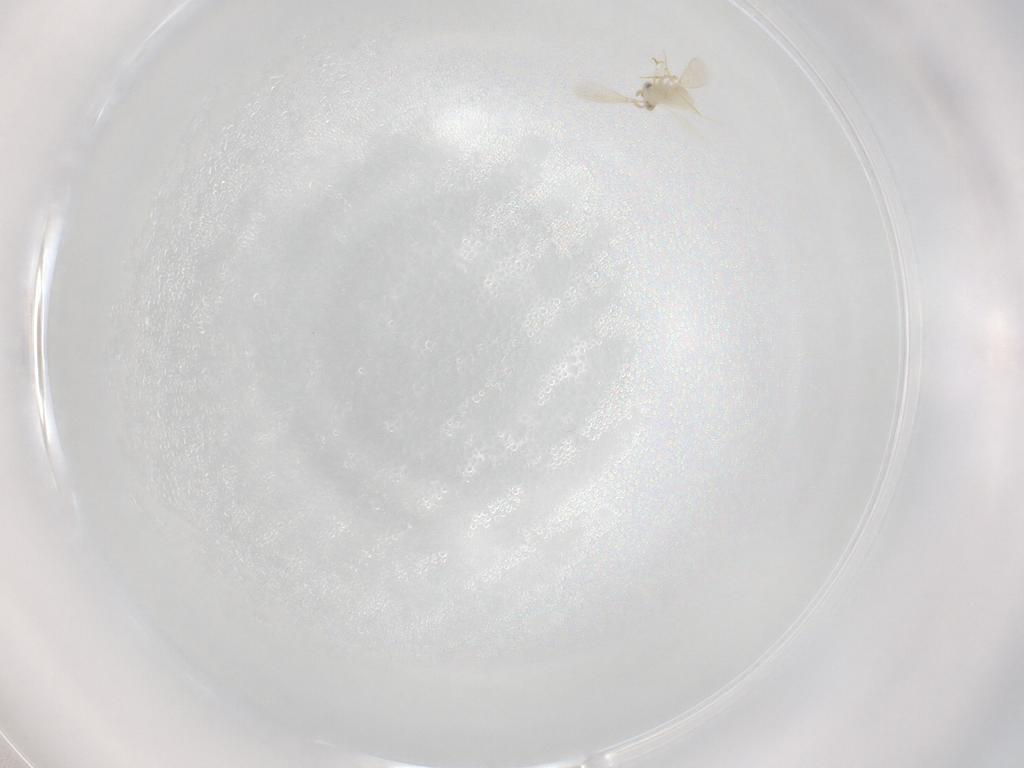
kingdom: Animalia
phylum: Arthropoda
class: Insecta
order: Hymenoptera
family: Aphelinidae
